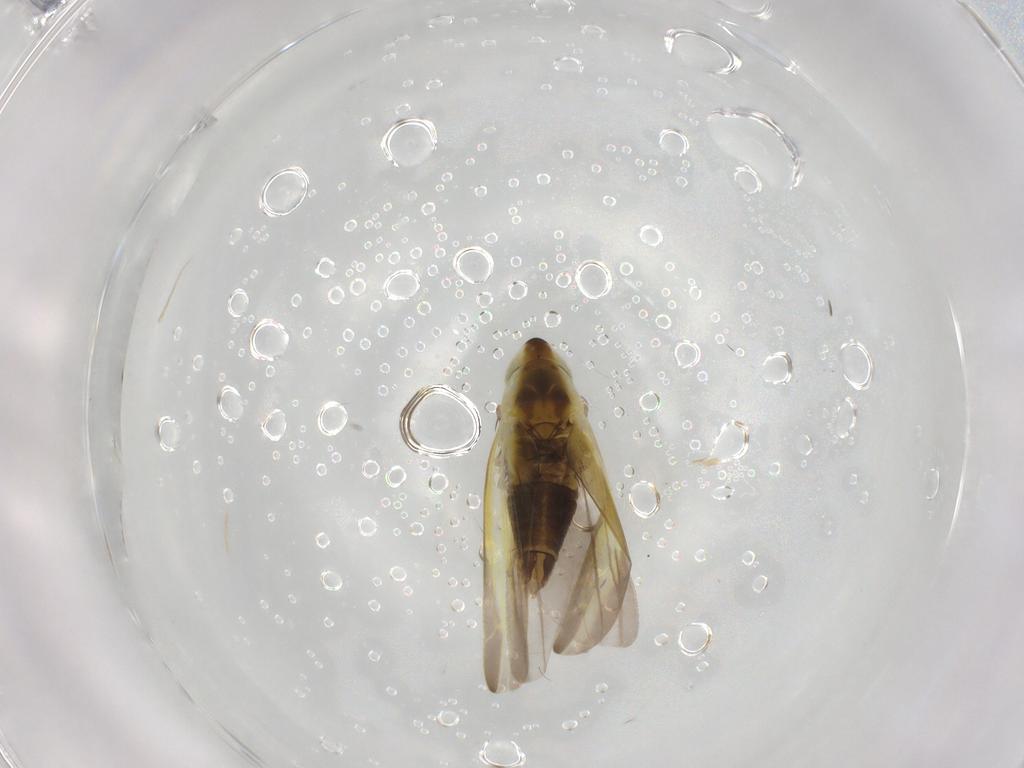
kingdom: Animalia
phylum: Arthropoda
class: Insecta
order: Hemiptera
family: Cicadellidae
